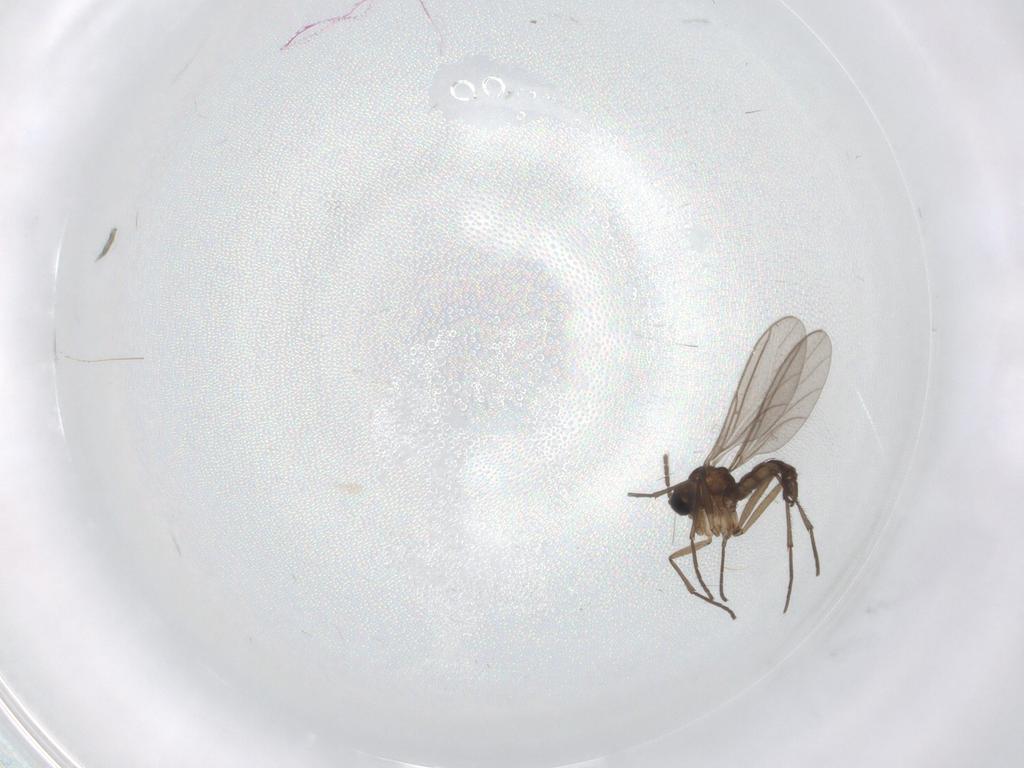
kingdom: Animalia
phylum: Arthropoda
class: Insecta
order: Diptera
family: Sciaridae
